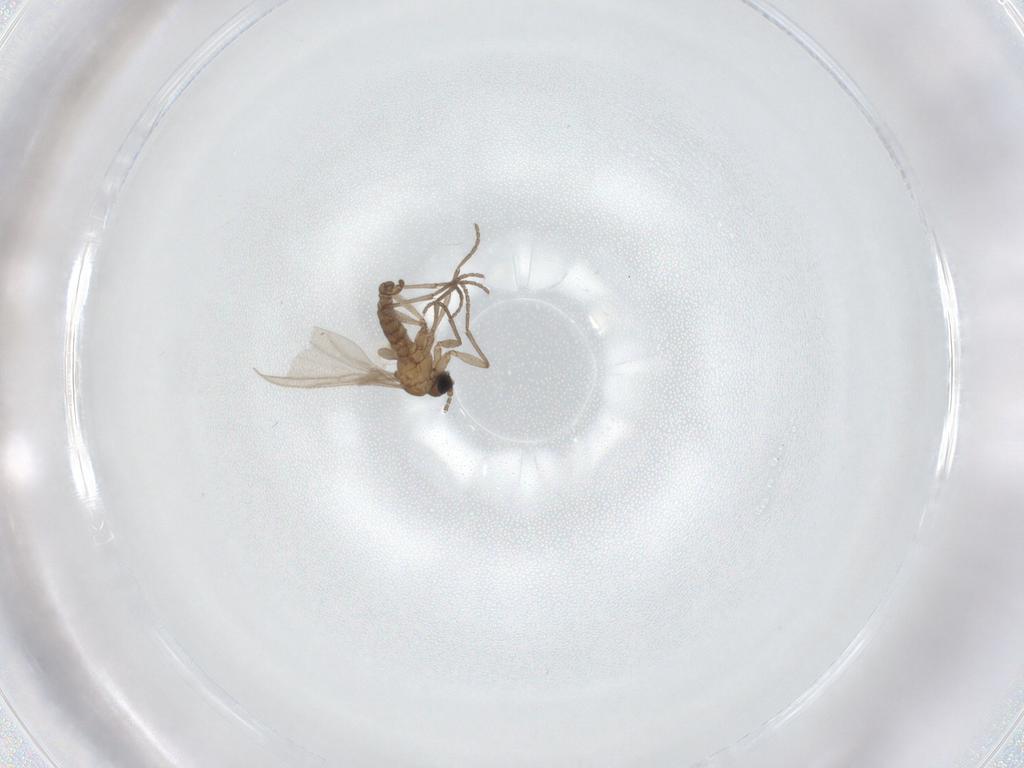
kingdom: Animalia
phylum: Arthropoda
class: Insecta
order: Diptera
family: Sciaridae
